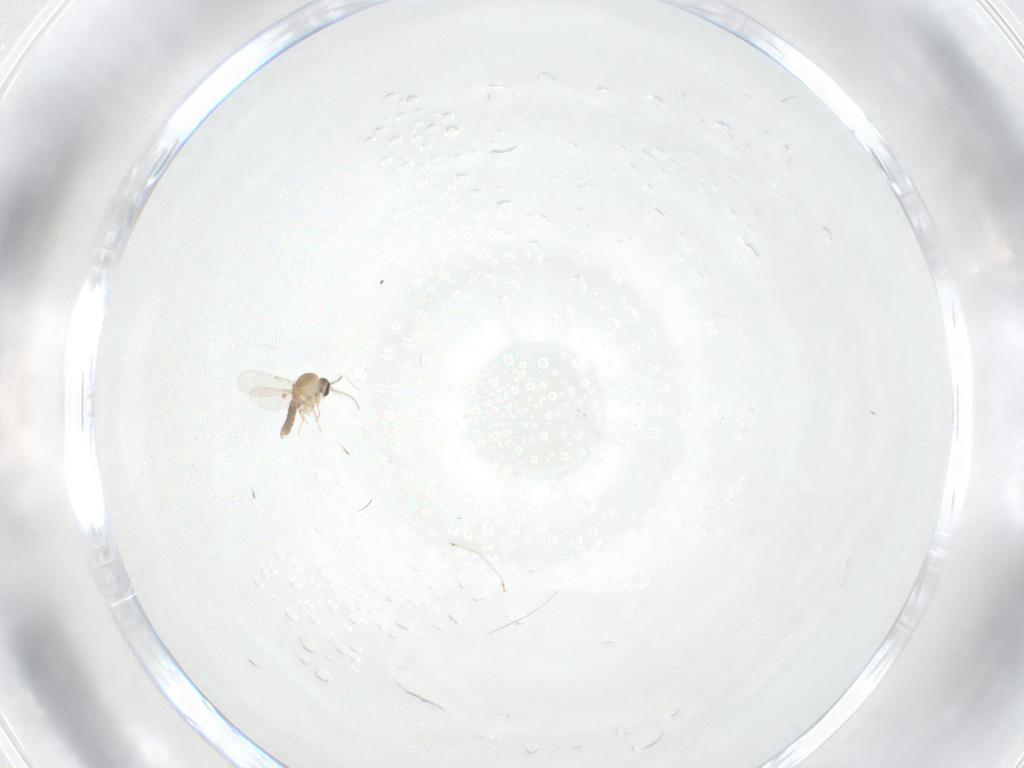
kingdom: Animalia
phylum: Arthropoda
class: Insecta
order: Diptera
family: Ceratopogonidae
